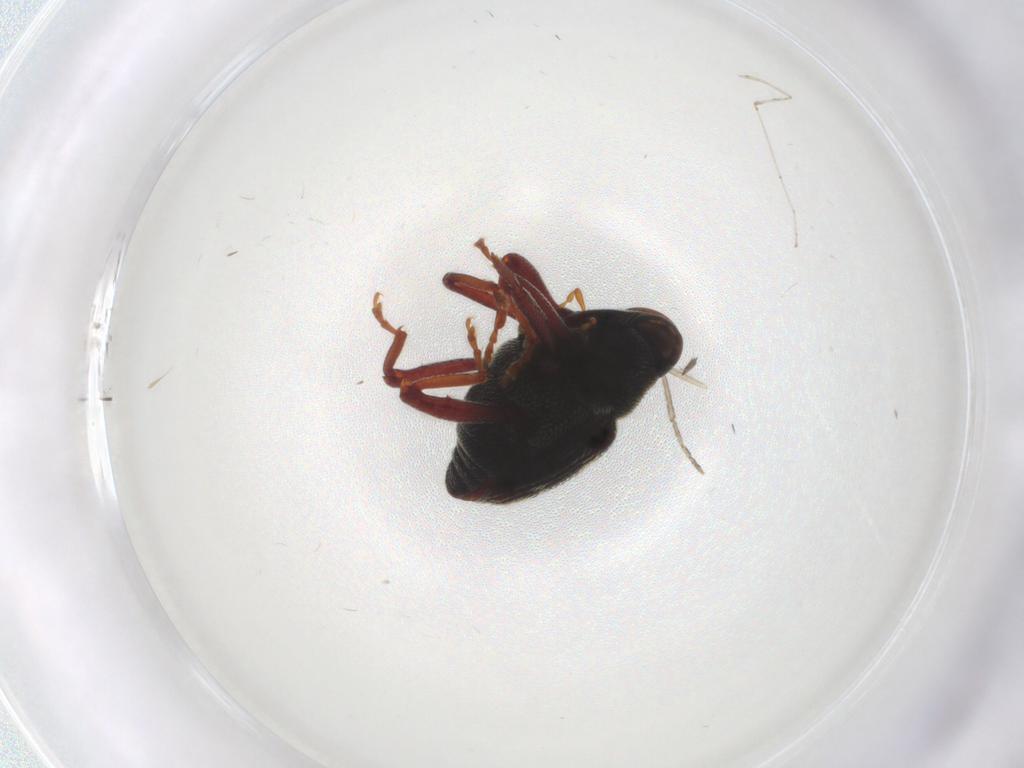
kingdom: Animalia
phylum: Arthropoda
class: Insecta
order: Coleoptera
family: Curculionidae
